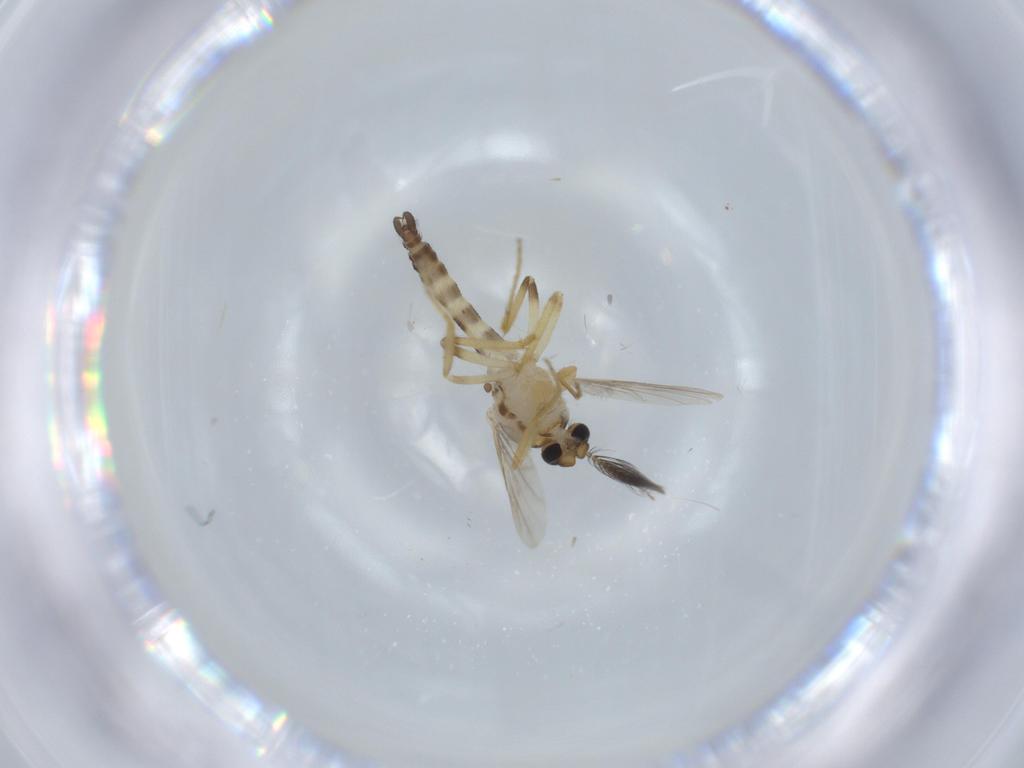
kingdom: Animalia
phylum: Arthropoda
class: Insecta
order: Diptera
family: Ceratopogonidae
